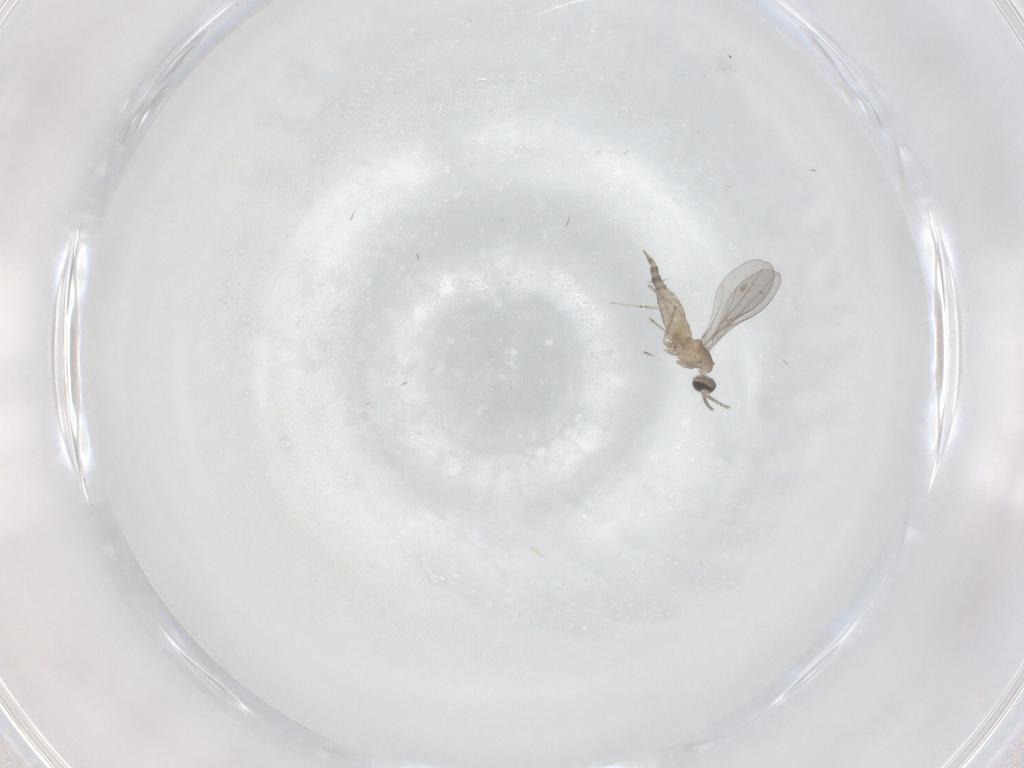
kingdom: Animalia
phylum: Arthropoda
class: Insecta
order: Diptera
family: Cecidomyiidae
